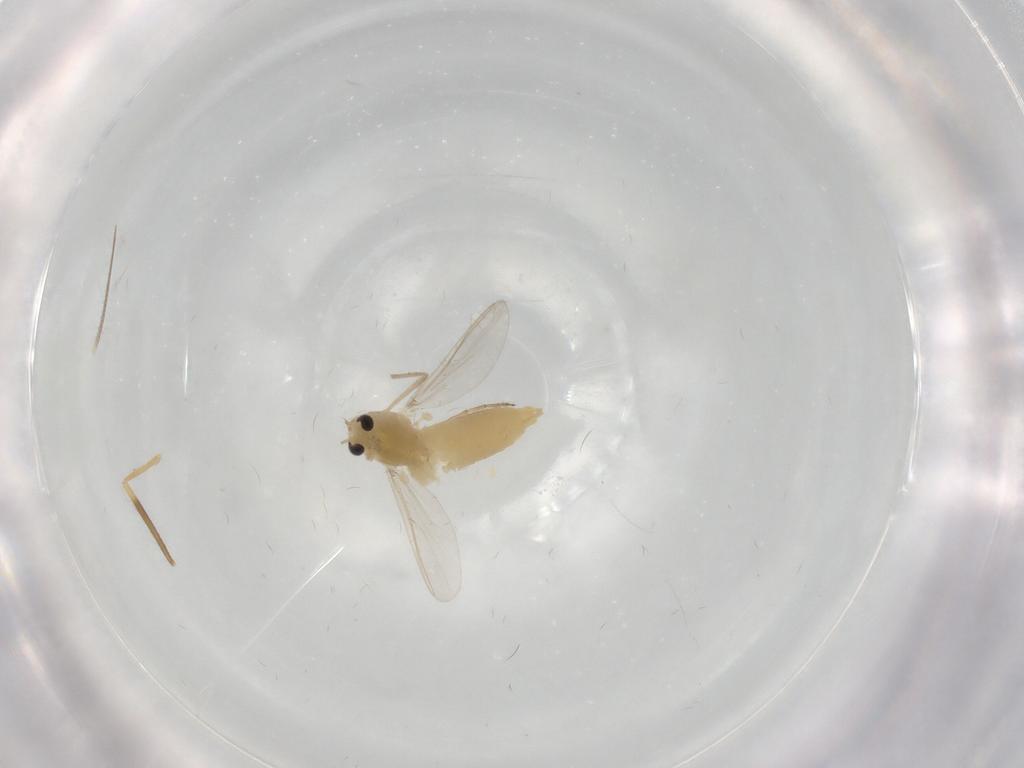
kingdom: Animalia
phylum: Arthropoda
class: Insecta
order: Diptera
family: Chironomidae
